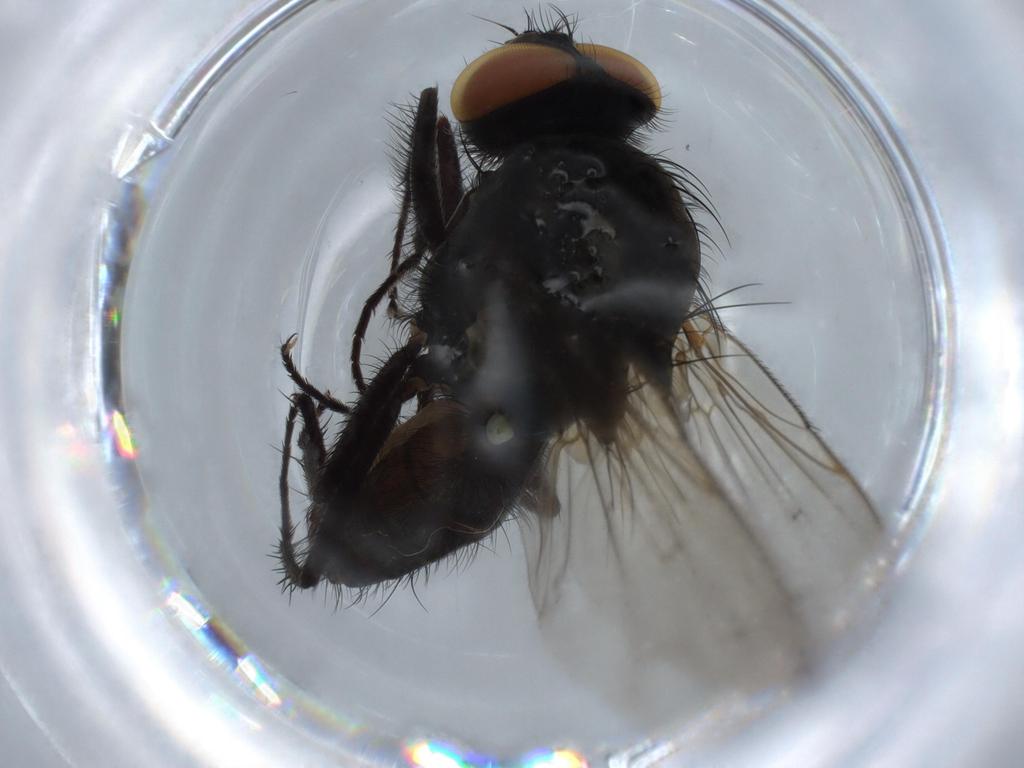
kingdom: Animalia
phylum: Arthropoda
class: Insecta
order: Diptera
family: Anthomyiidae
